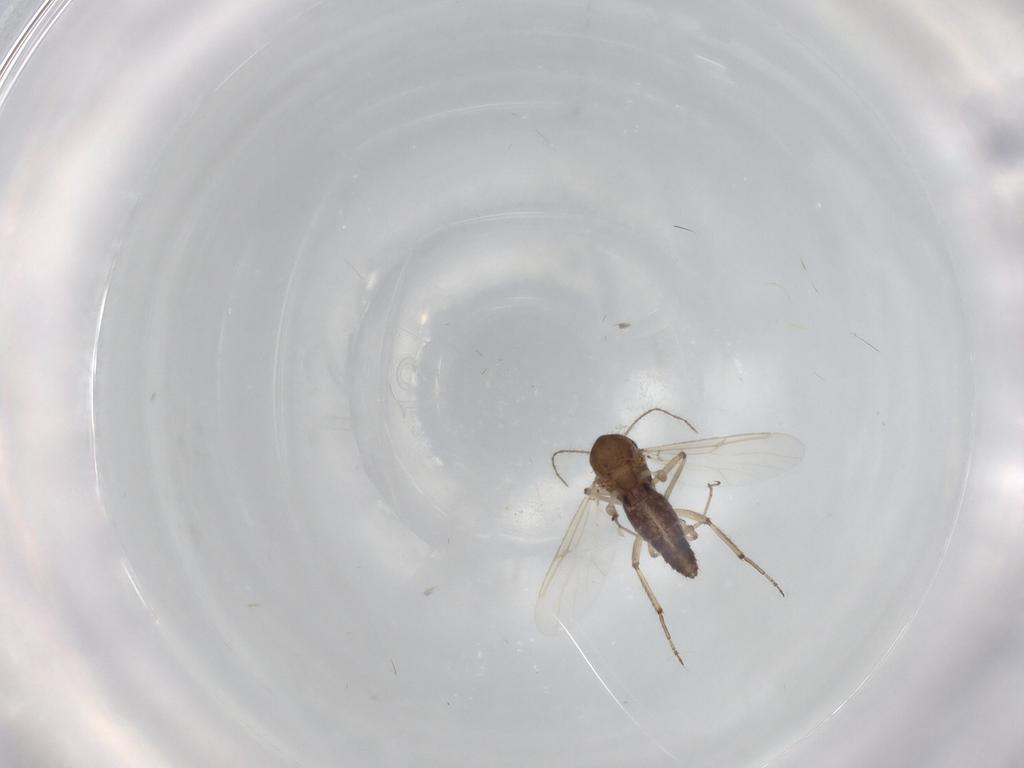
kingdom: Animalia
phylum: Arthropoda
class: Insecta
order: Diptera
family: Ceratopogonidae
